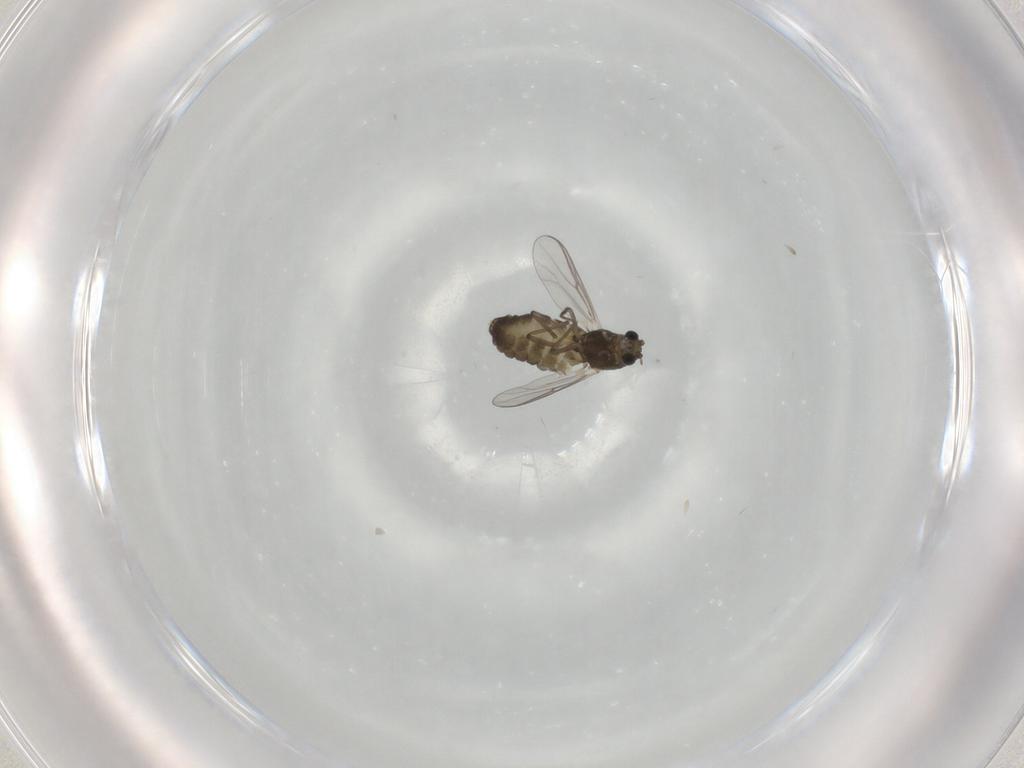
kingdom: Animalia
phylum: Arthropoda
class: Insecta
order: Diptera
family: Chironomidae
